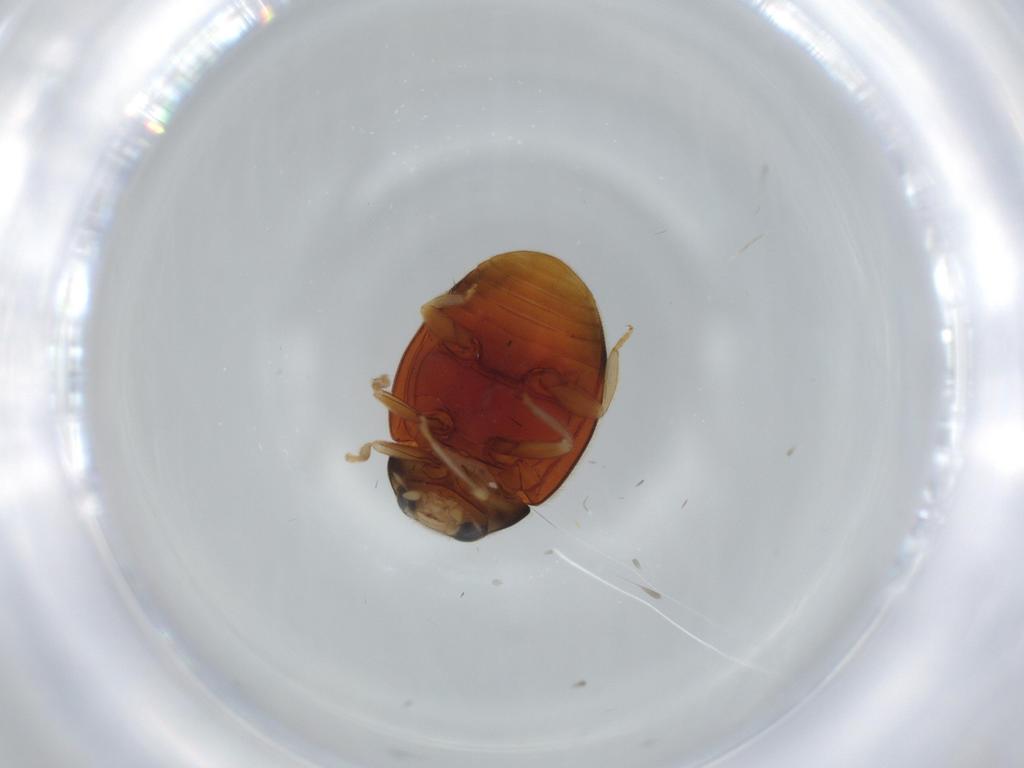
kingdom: Animalia
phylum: Arthropoda
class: Insecta
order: Coleoptera
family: Coccinellidae
